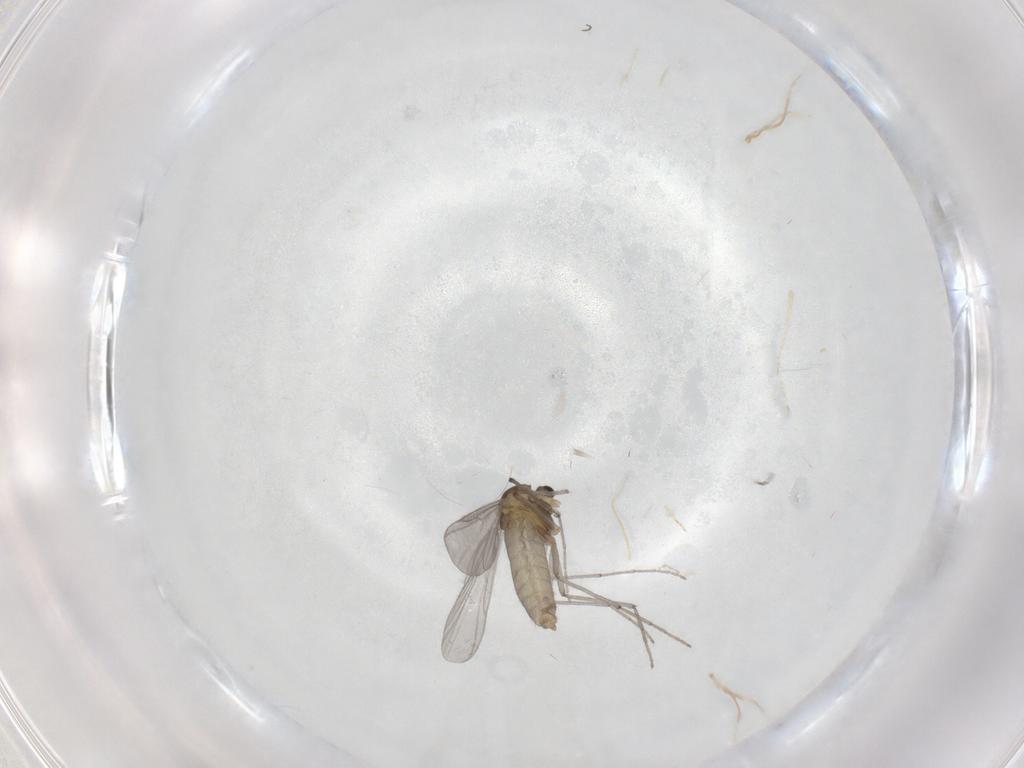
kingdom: Animalia
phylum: Arthropoda
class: Insecta
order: Diptera
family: Cecidomyiidae
